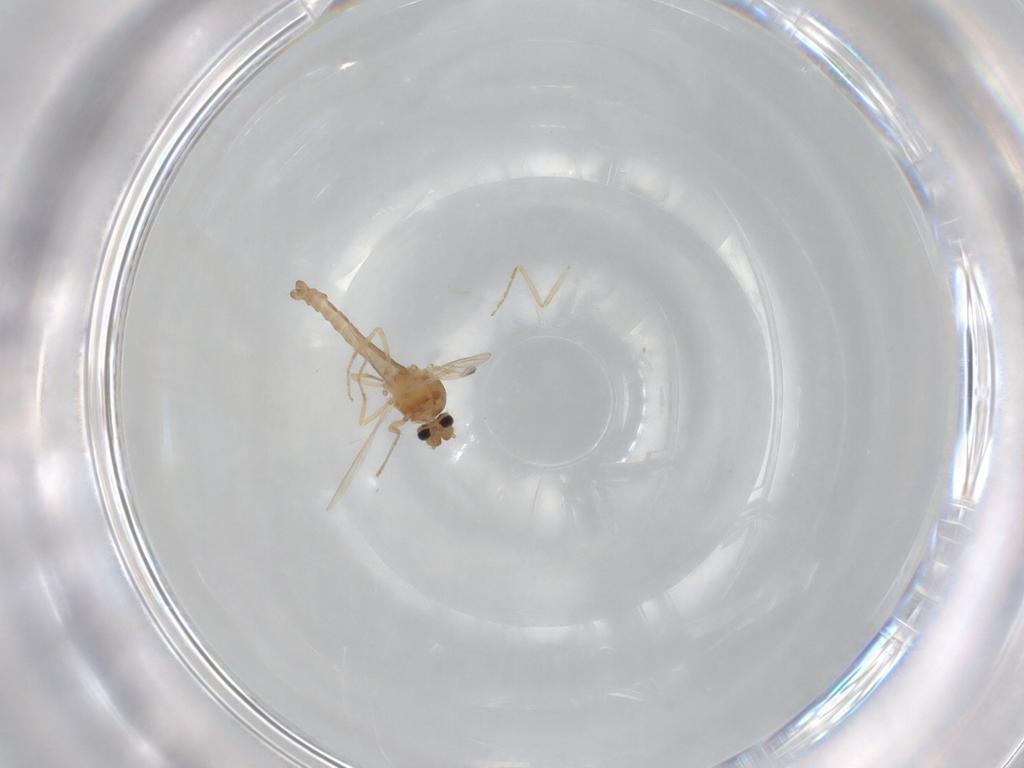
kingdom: Animalia
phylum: Arthropoda
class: Insecta
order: Diptera
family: Ceratopogonidae
